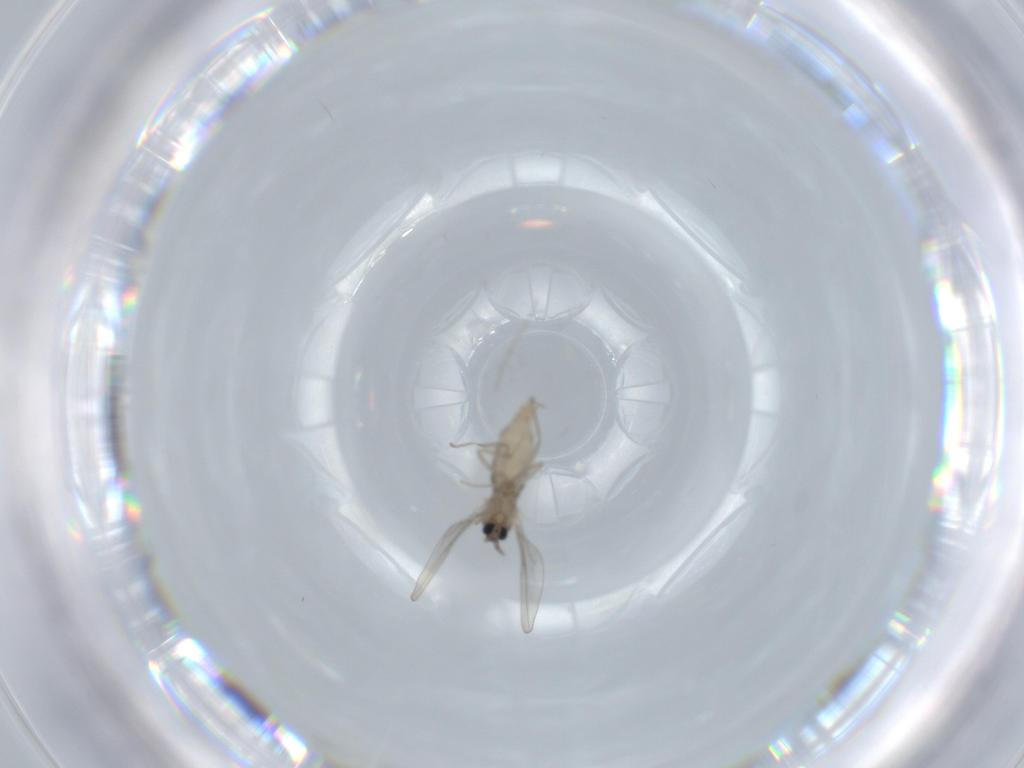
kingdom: Animalia
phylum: Arthropoda
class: Insecta
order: Diptera
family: Cecidomyiidae
